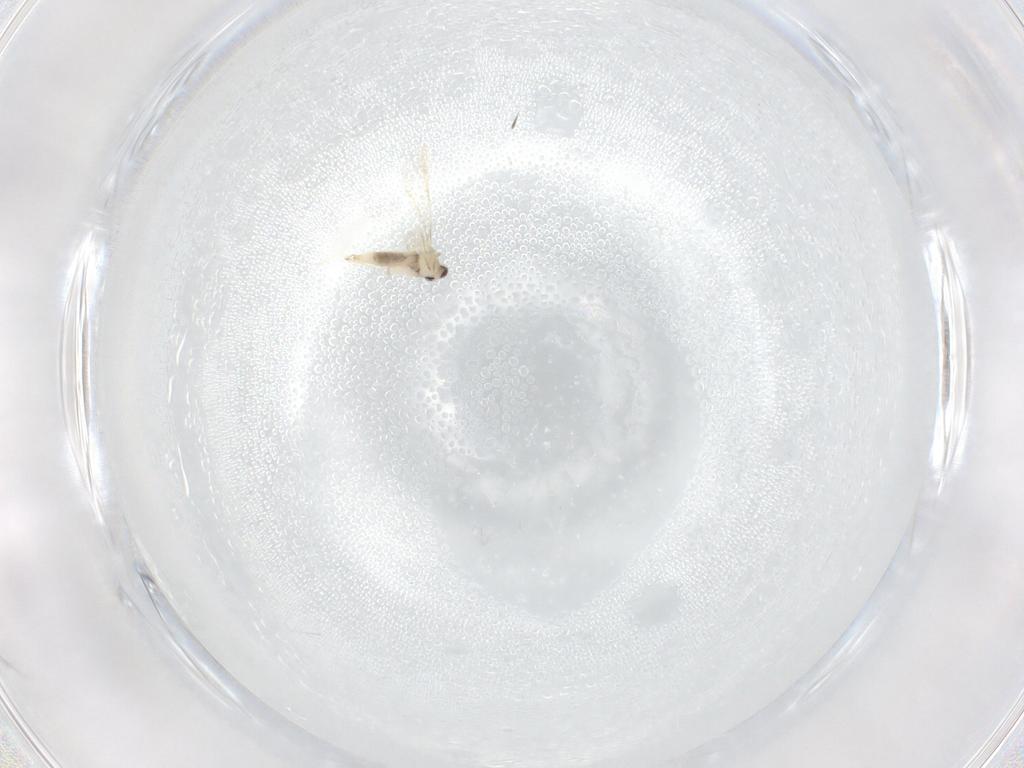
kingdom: Animalia
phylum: Arthropoda
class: Insecta
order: Diptera
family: Cecidomyiidae
